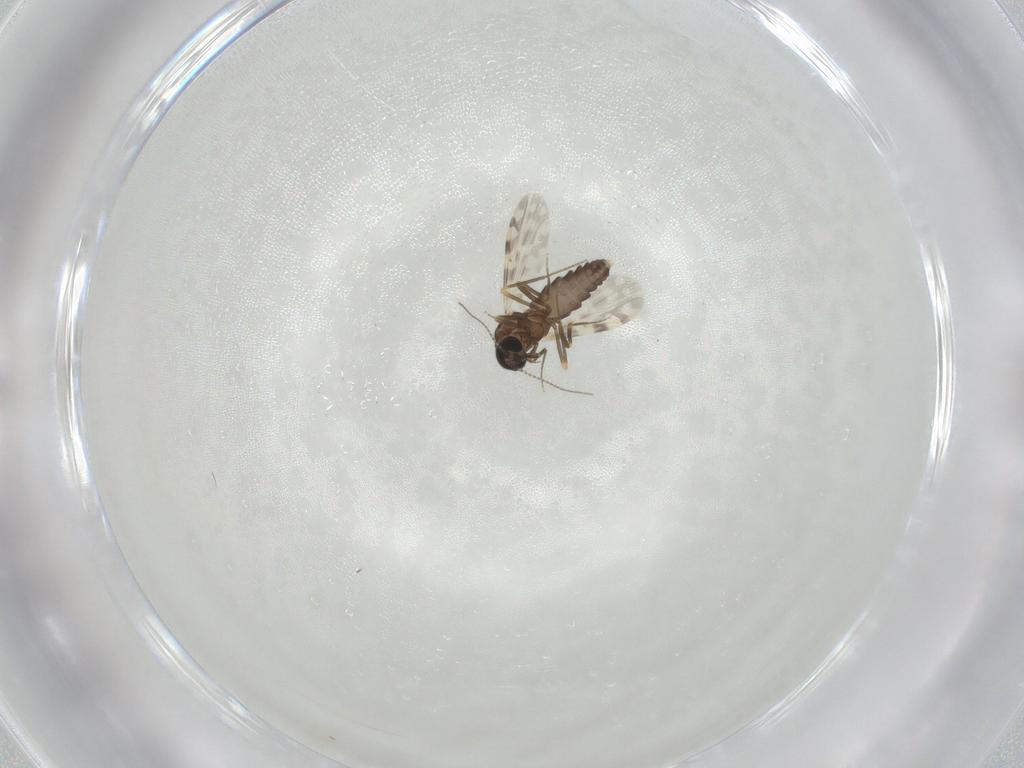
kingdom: Animalia
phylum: Arthropoda
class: Insecta
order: Diptera
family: Ceratopogonidae
